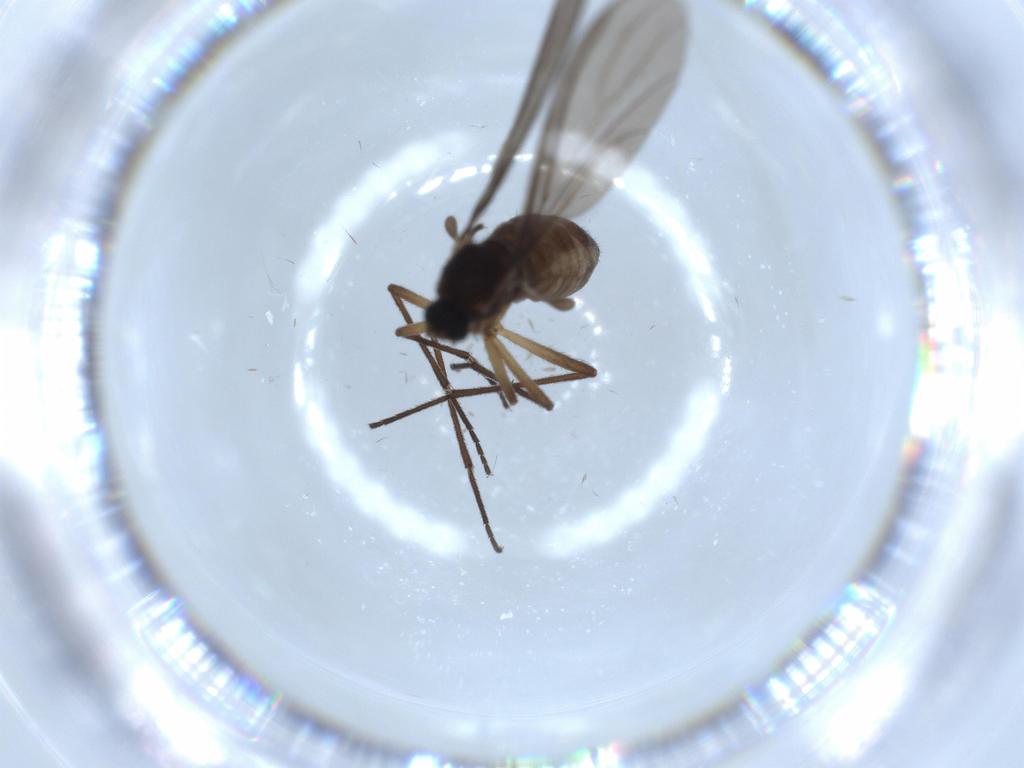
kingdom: Animalia
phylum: Arthropoda
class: Insecta
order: Diptera
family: Sciaridae
